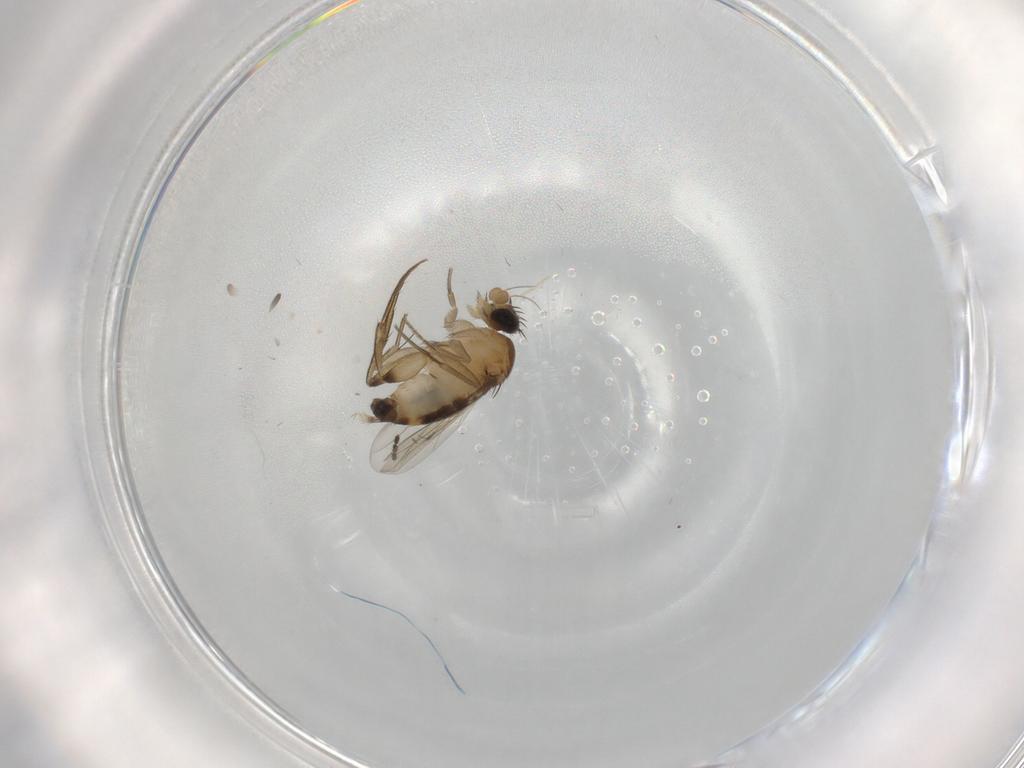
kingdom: Animalia
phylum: Arthropoda
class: Insecta
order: Diptera
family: Phoridae
